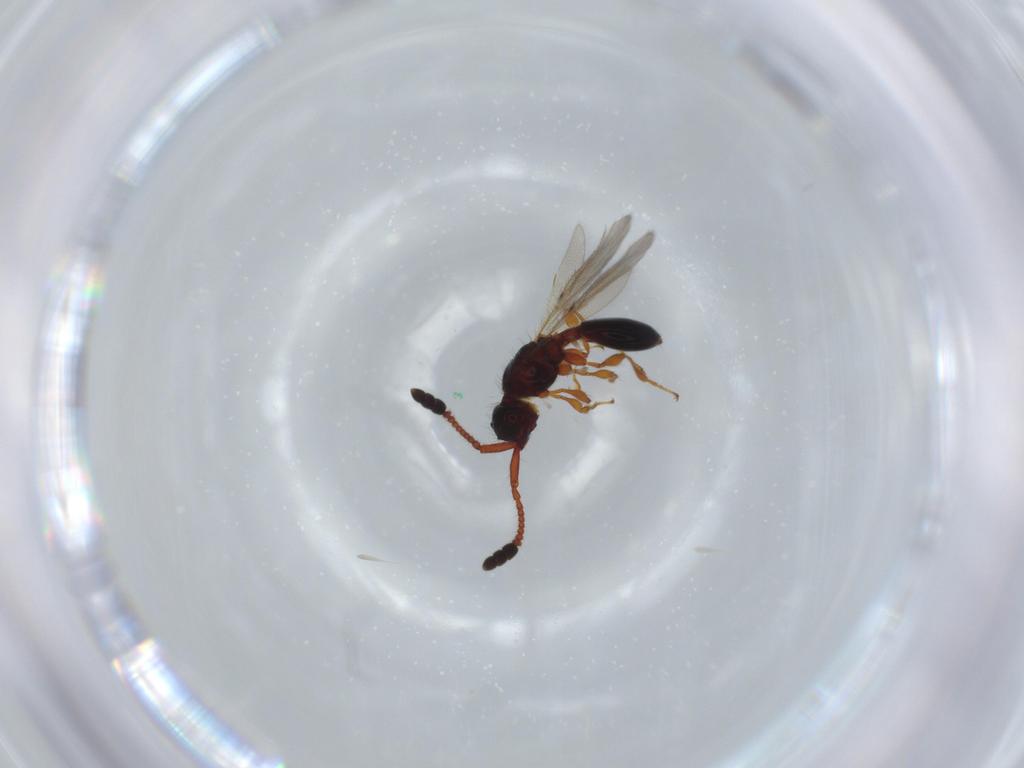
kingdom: Animalia
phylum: Arthropoda
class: Insecta
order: Hymenoptera
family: Diapriidae
